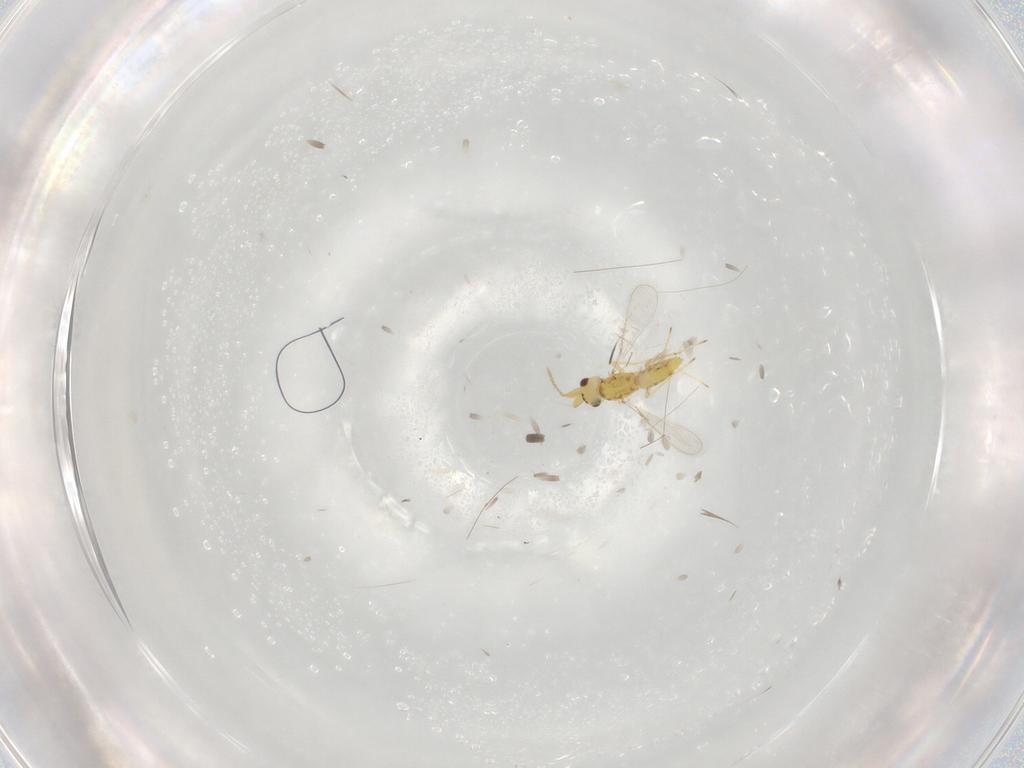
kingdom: Animalia
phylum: Arthropoda
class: Insecta
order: Hymenoptera
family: Eulophidae
